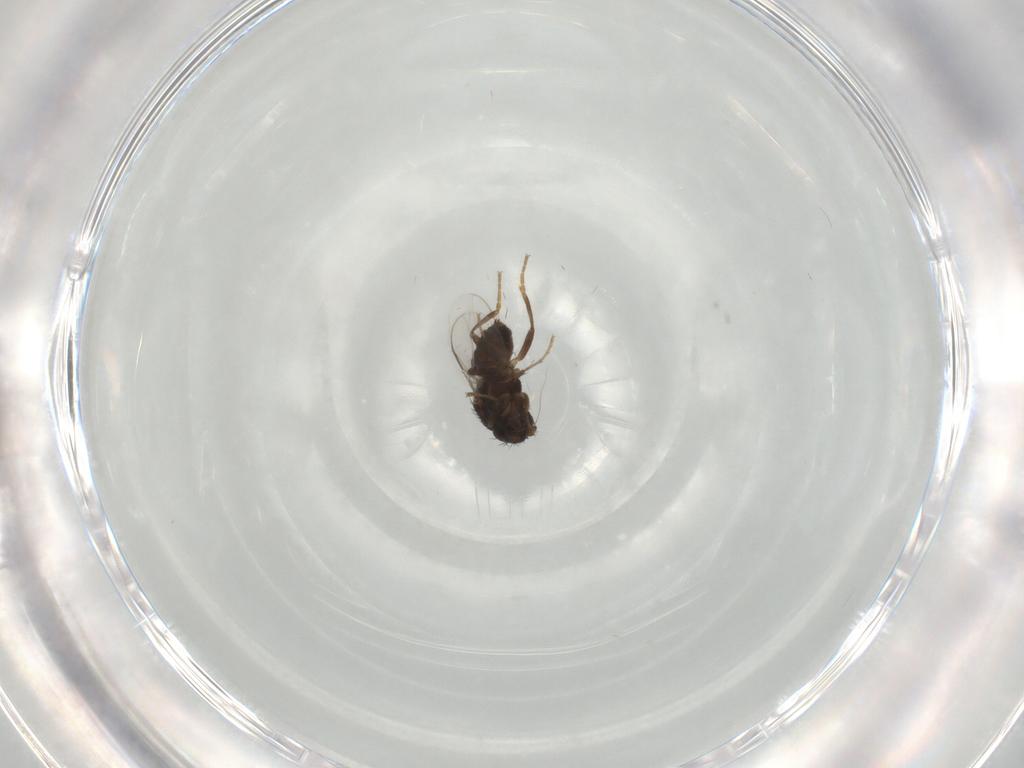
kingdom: Animalia
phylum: Arthropoda
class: Insecta
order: Diptera
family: Sphaeroceridae
